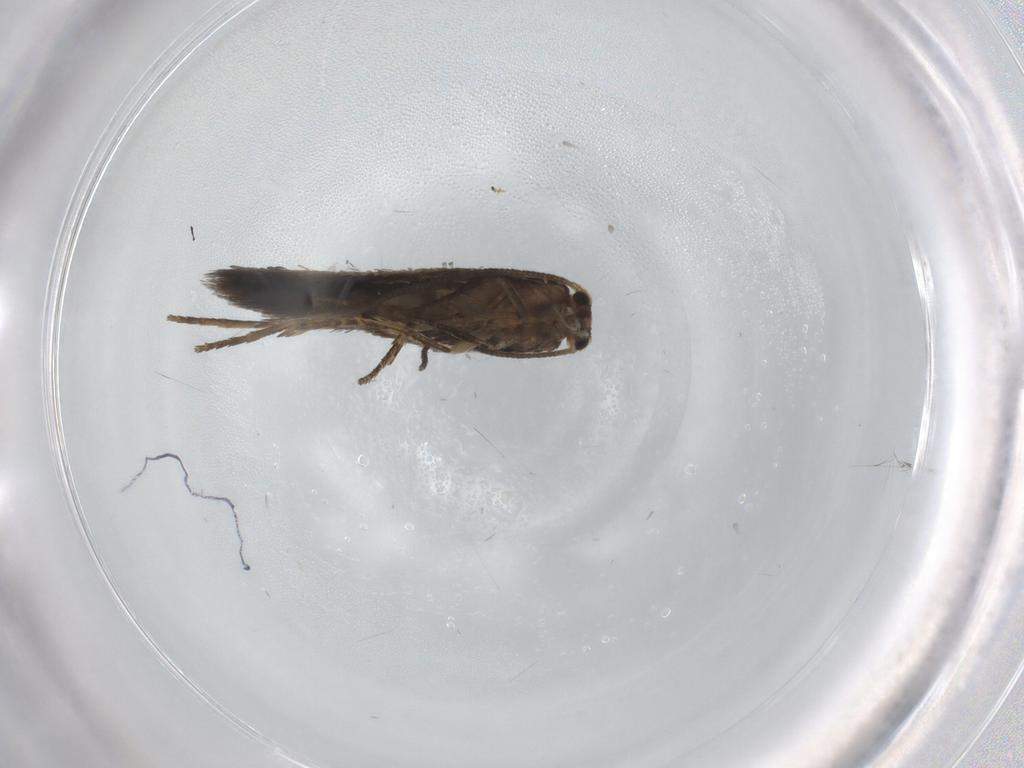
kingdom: Animalia
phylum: Arthropoda
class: Insecta
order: Lepidoptera
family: Nepticulidae
